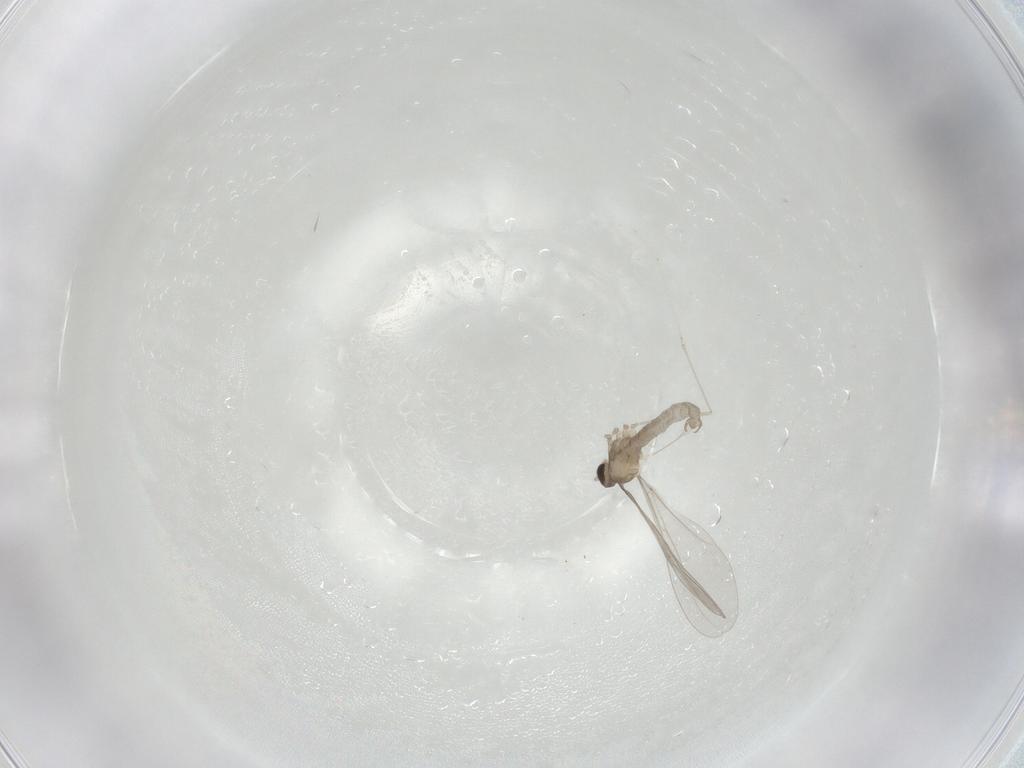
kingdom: Animalia
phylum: Arthropoda
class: Insecta
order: Diptera
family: Cecidomyiidae
